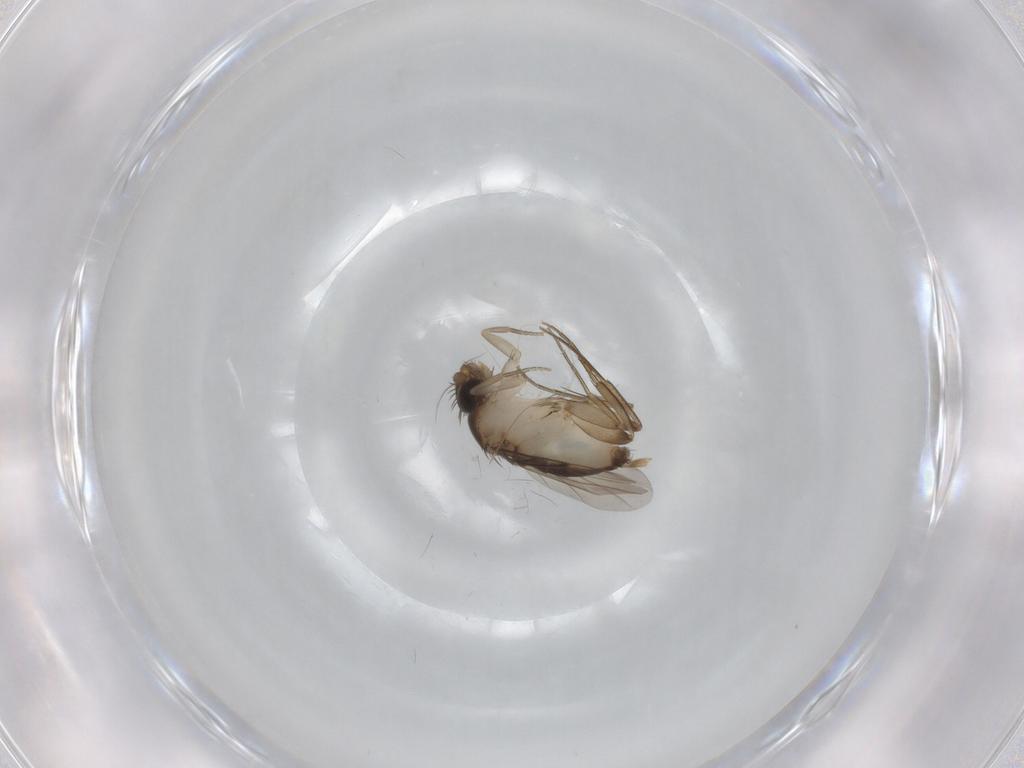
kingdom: Animalia
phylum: Arthropoda
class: Insecta
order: Diptera
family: Phoridae
